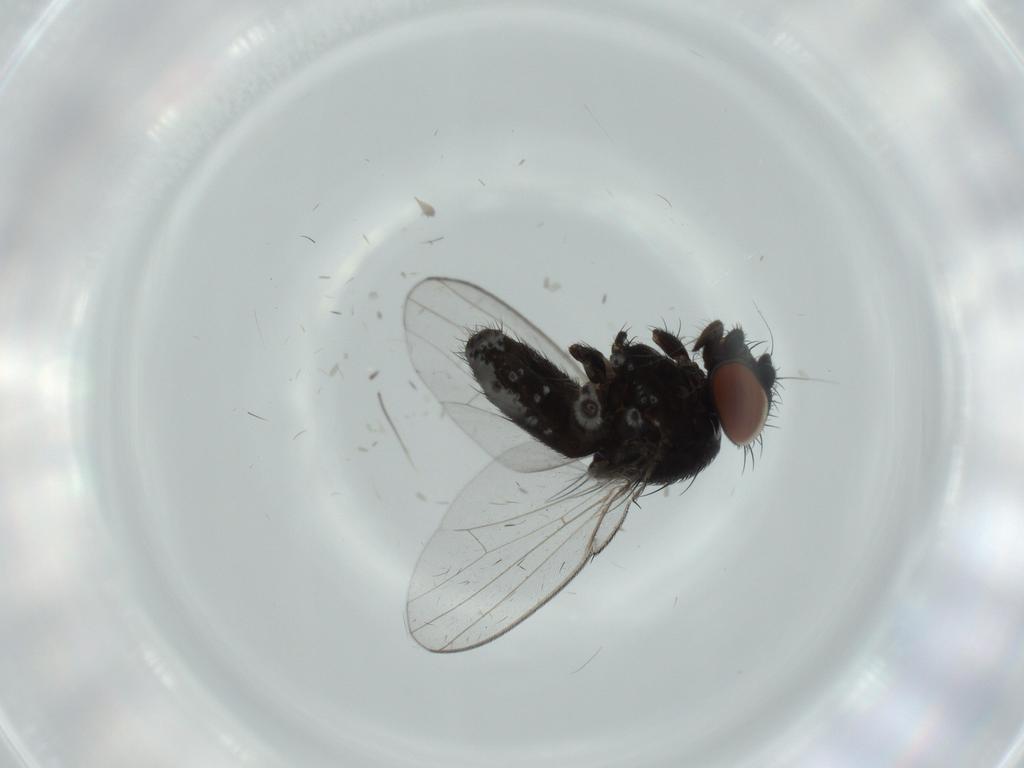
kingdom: Animalia
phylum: Arthropoda
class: Insecta
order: Diptera
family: Milichiidae
